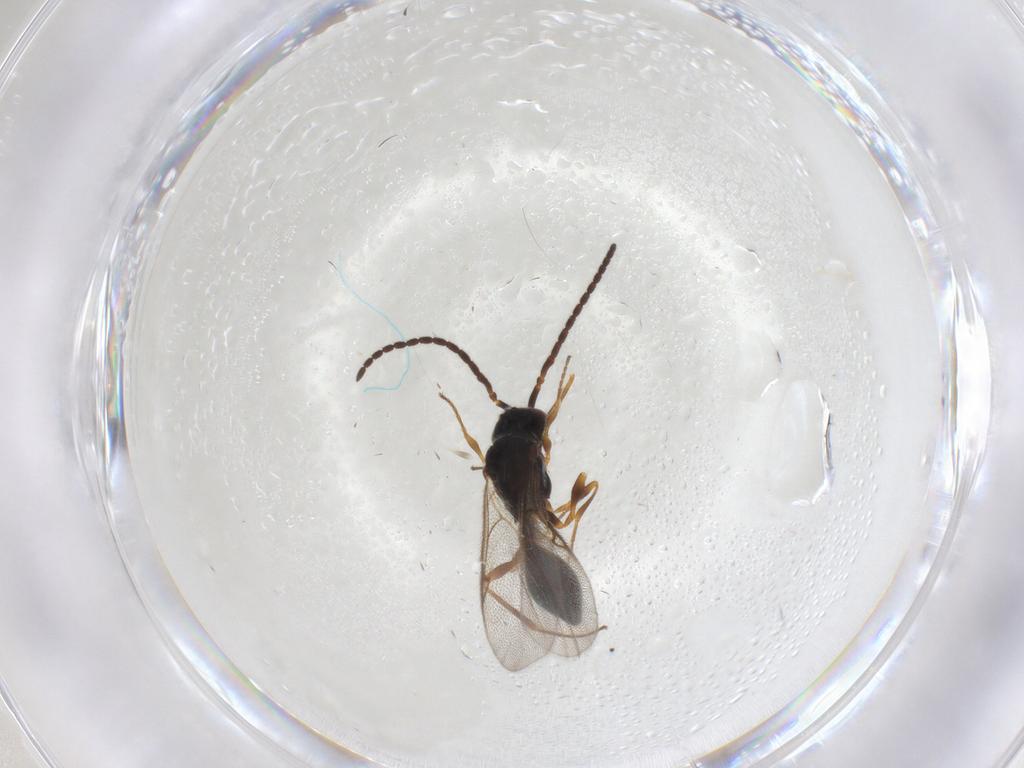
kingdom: Animalia
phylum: Arthropoda
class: Insecta
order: Hymenoptera
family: Diapriidae
